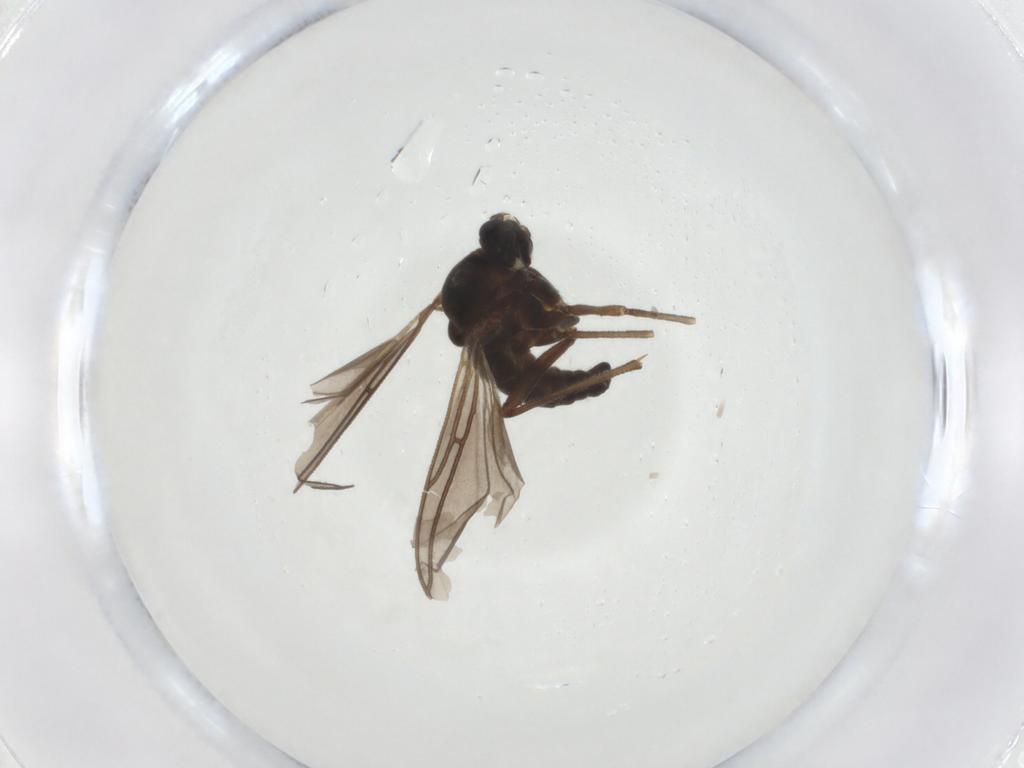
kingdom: Animalia
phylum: Arthropoda
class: Insecta
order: Diptera
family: Sciaridae
